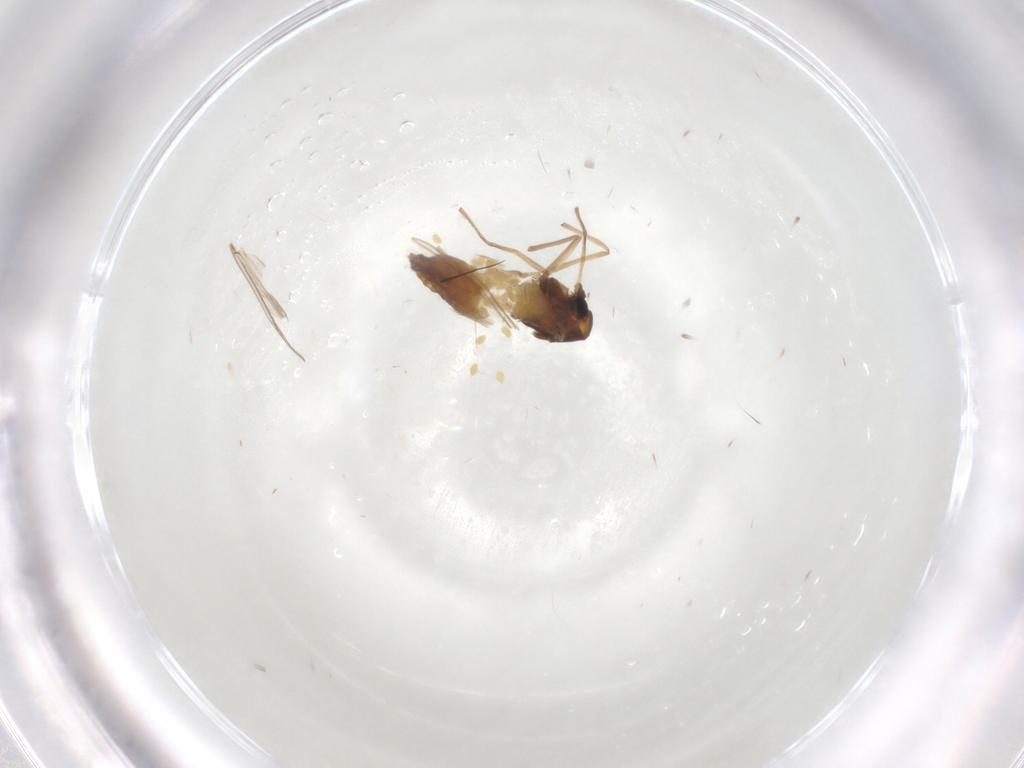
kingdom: Animalia
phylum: Arthropoda
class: Insecta
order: Diptera
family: Chironomidae
